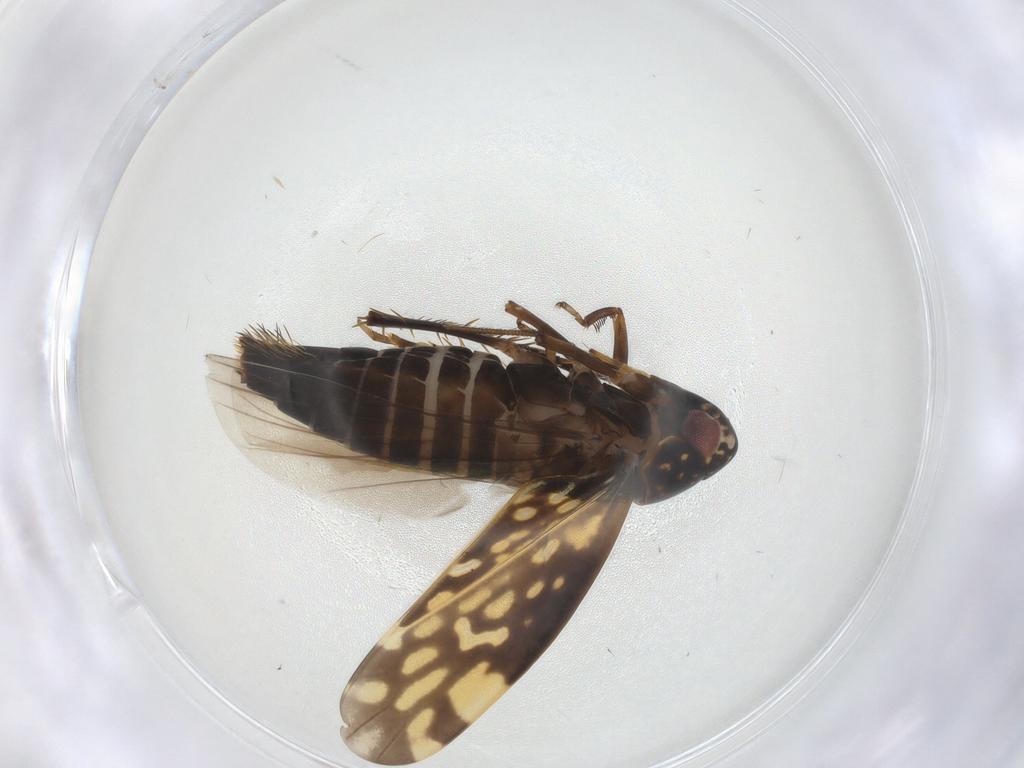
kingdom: Animalia
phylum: Arthropoda
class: Insecta
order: Hemiptera
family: Cicadellidae
